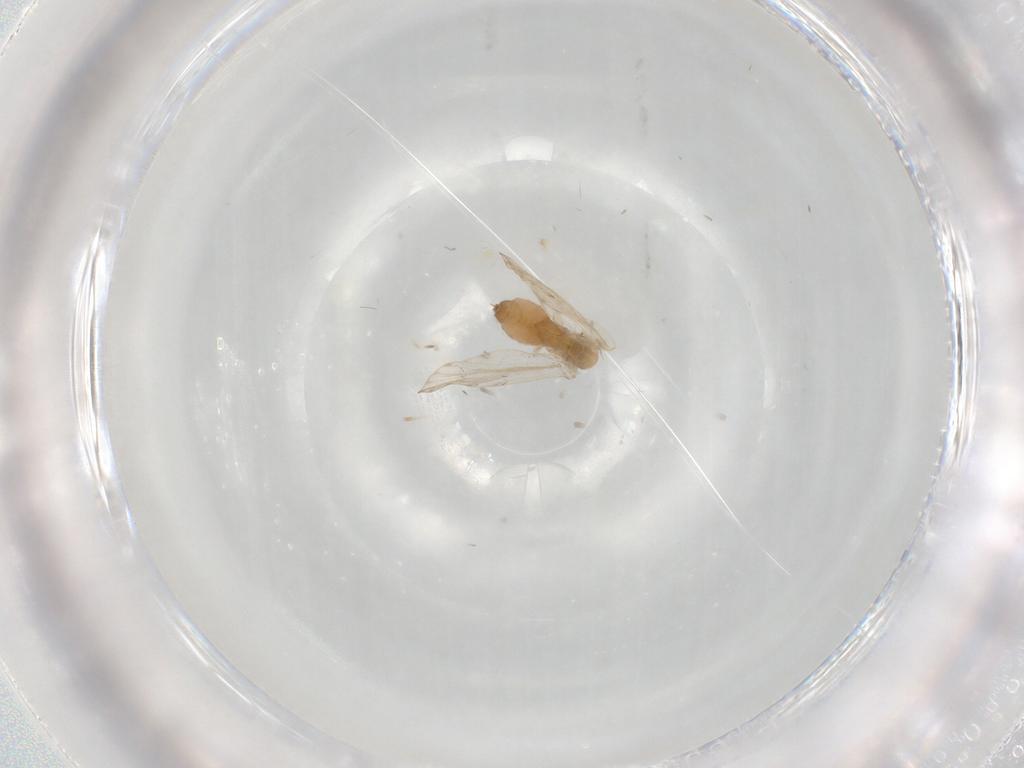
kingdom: Animalia
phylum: Arthropoda
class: Insecta
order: Diptera
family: Psychodidae
